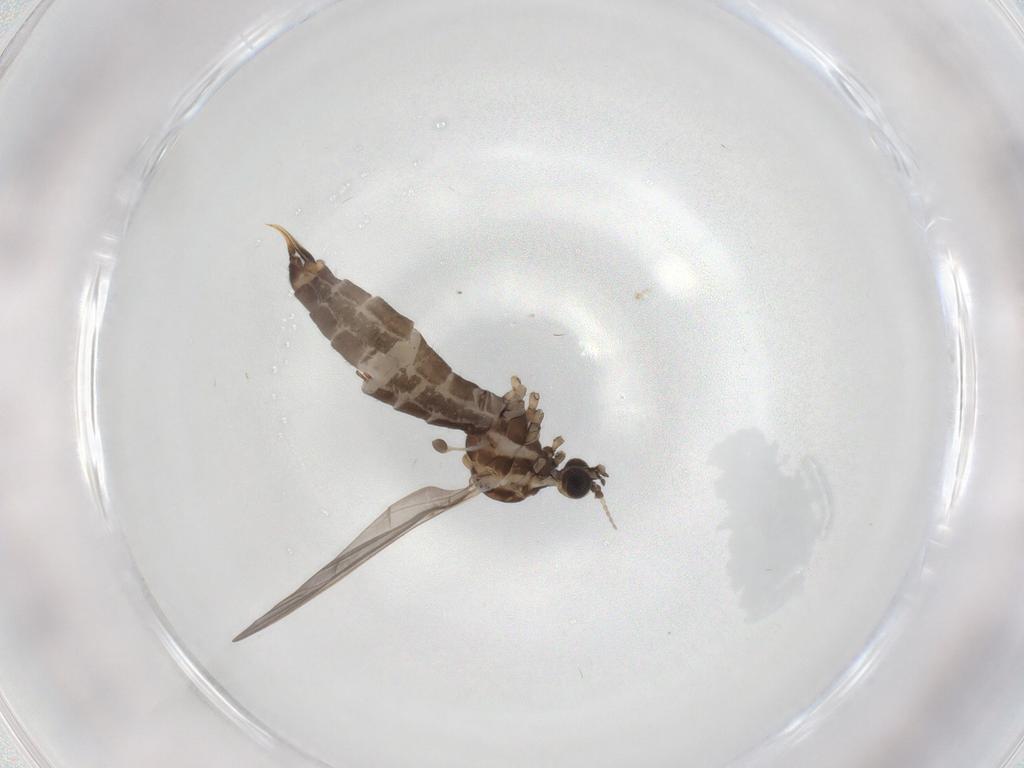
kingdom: Animalia
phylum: Arthropoda
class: Insecta
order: Diptera
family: Limoniidae
